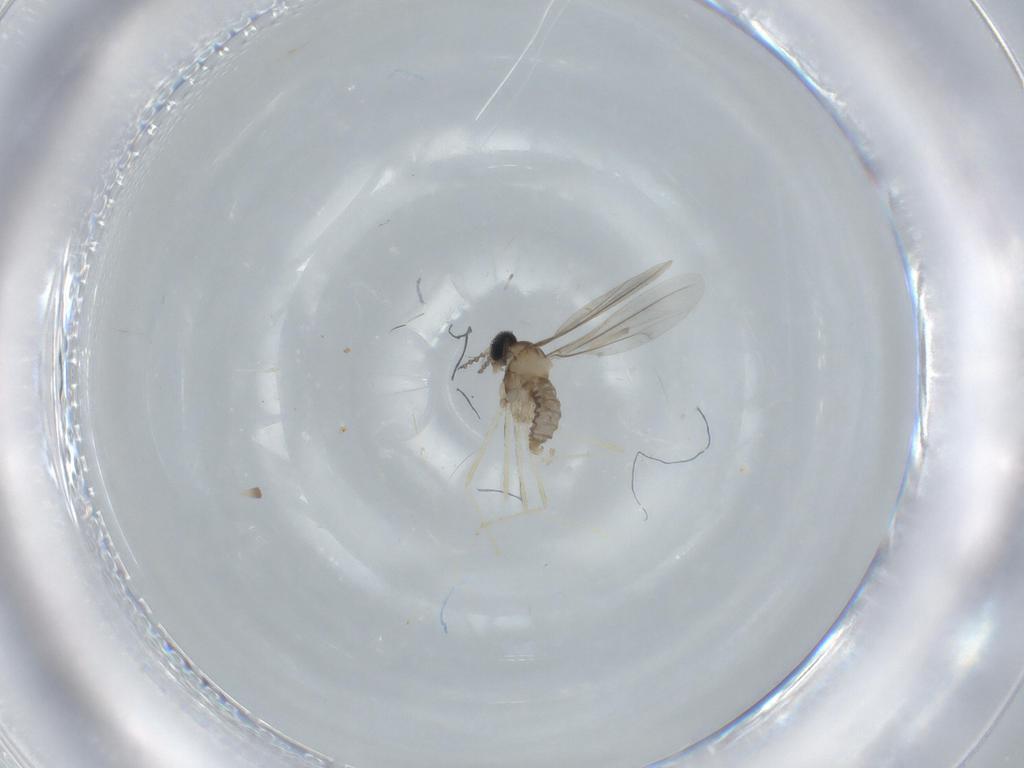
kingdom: Animalia
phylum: Arthropoda
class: Insecta
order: Diptera
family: Cecidomyiidae
